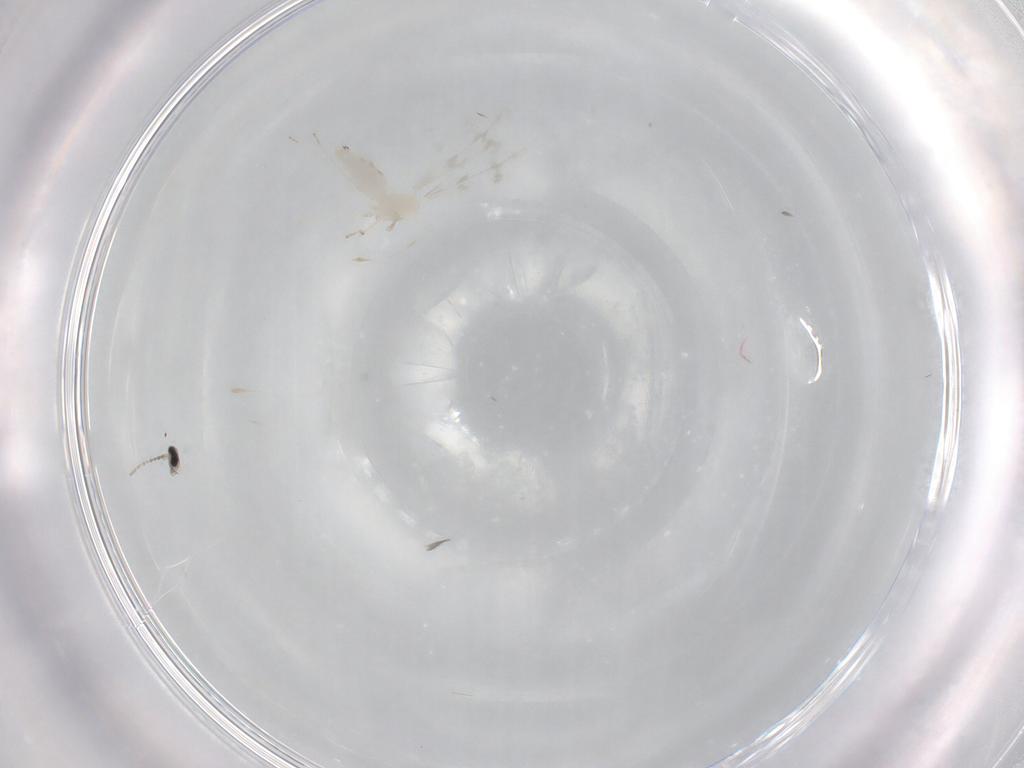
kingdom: Animalia
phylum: Arthropoda
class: Insecta
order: Diptera
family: Cecidomyiidae
